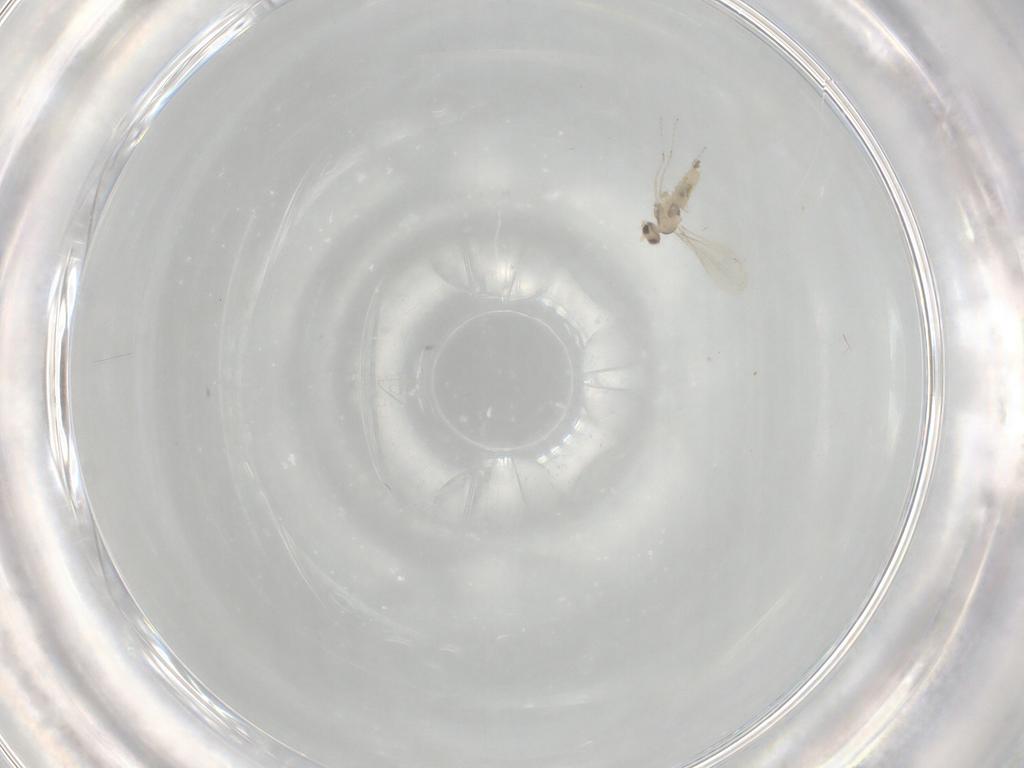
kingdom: Animalia
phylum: Arthropoda
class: Insecta
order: Diptera
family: Cecidomyiidae
